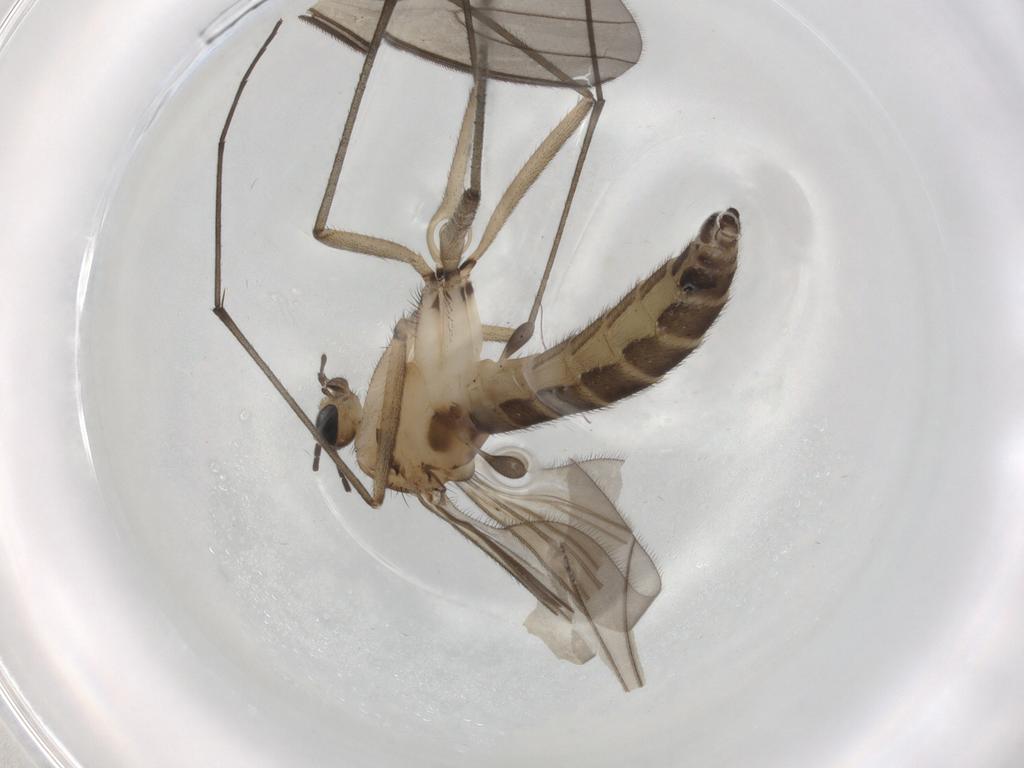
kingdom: Animalia
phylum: Arthropoda
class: Insecta
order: Diptera
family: Sciaridae
